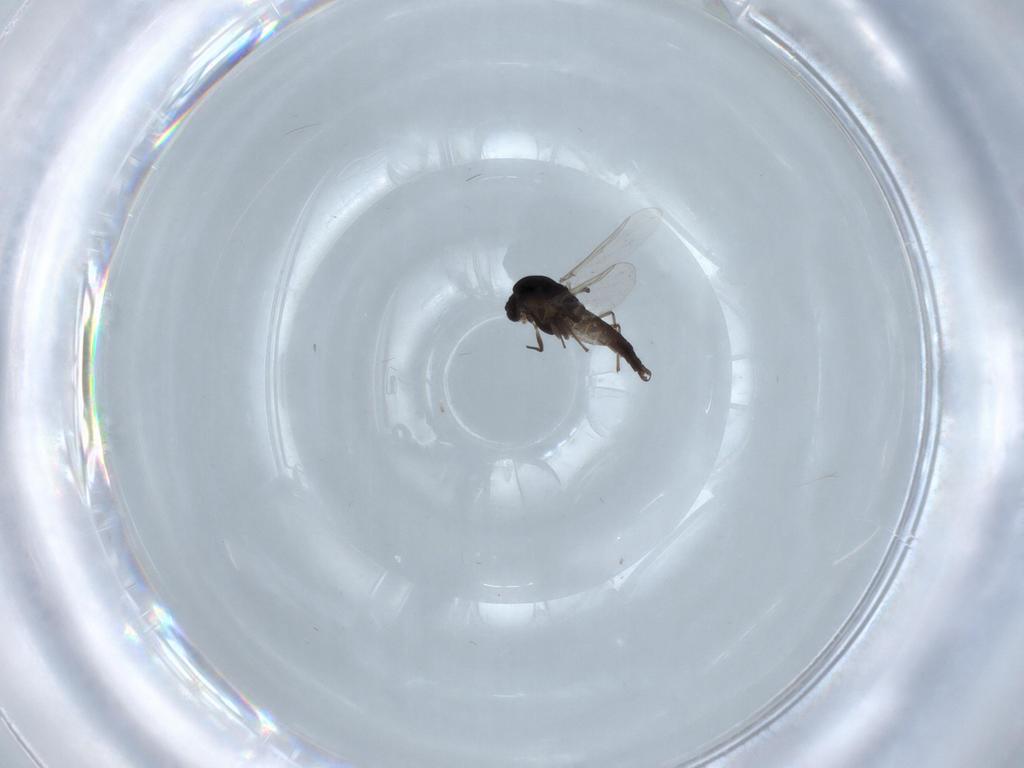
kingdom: Animalia
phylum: Arthropoda
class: Insecta
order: Diptera
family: Chironomidae
